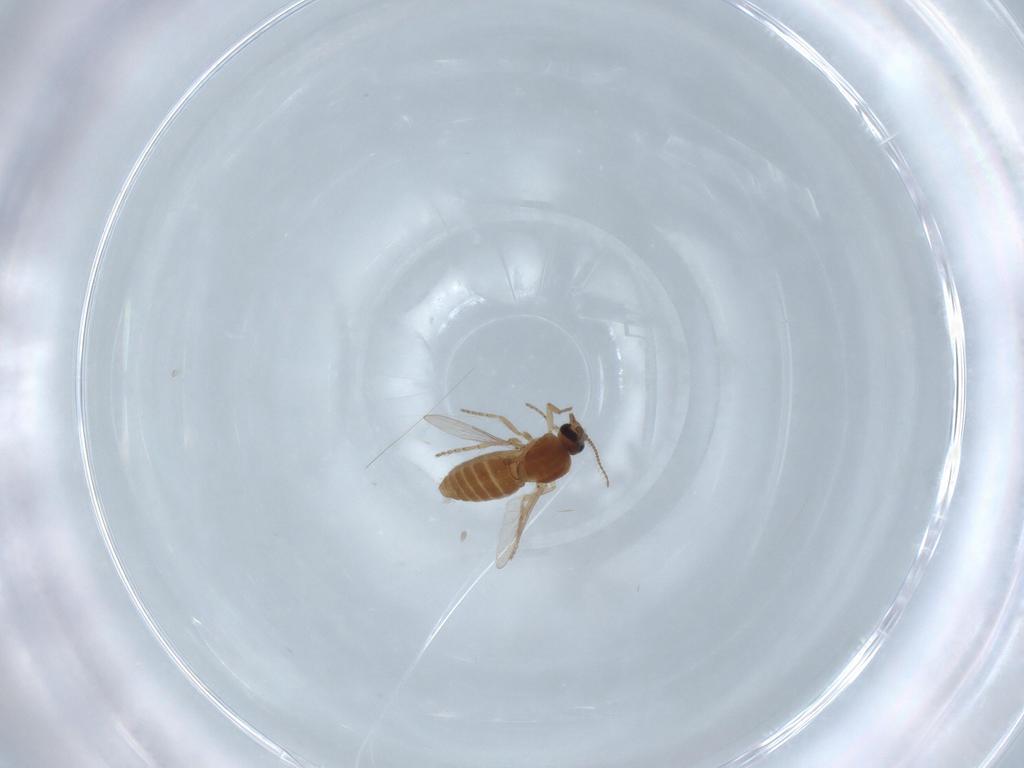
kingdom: Animalia
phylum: Arthropoda
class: Insecta
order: Diptera
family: Ceratopogonidae
